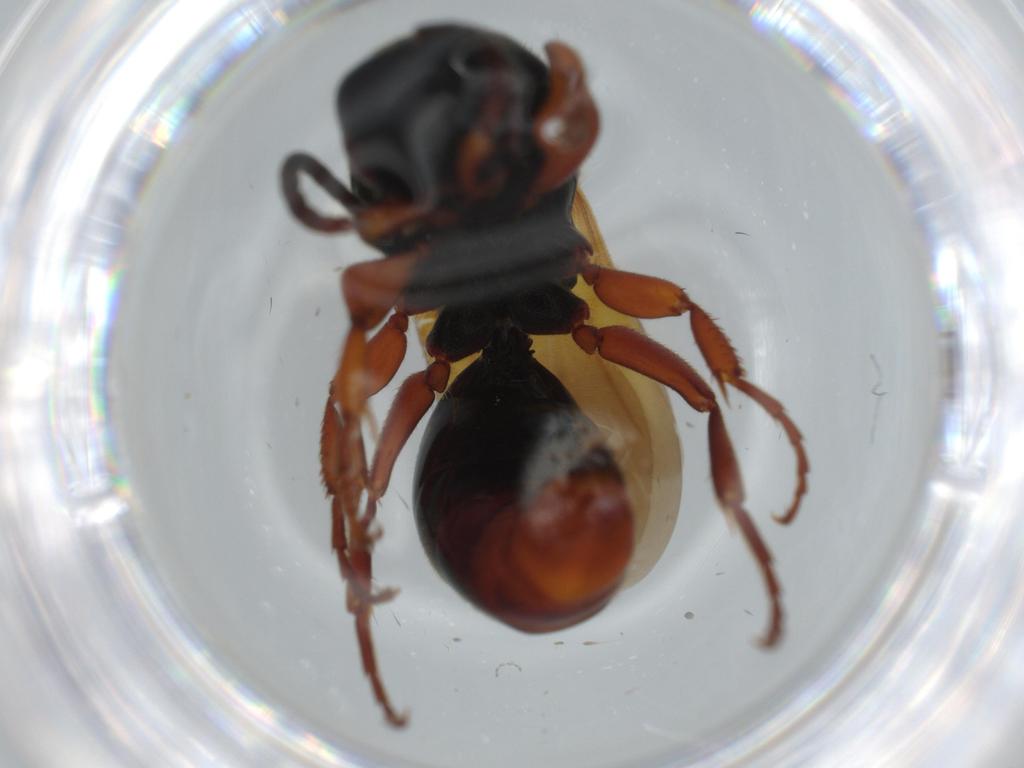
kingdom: Animalia
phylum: Arthropoda
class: Insecta
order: Hymenoptera
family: Bethylidae
